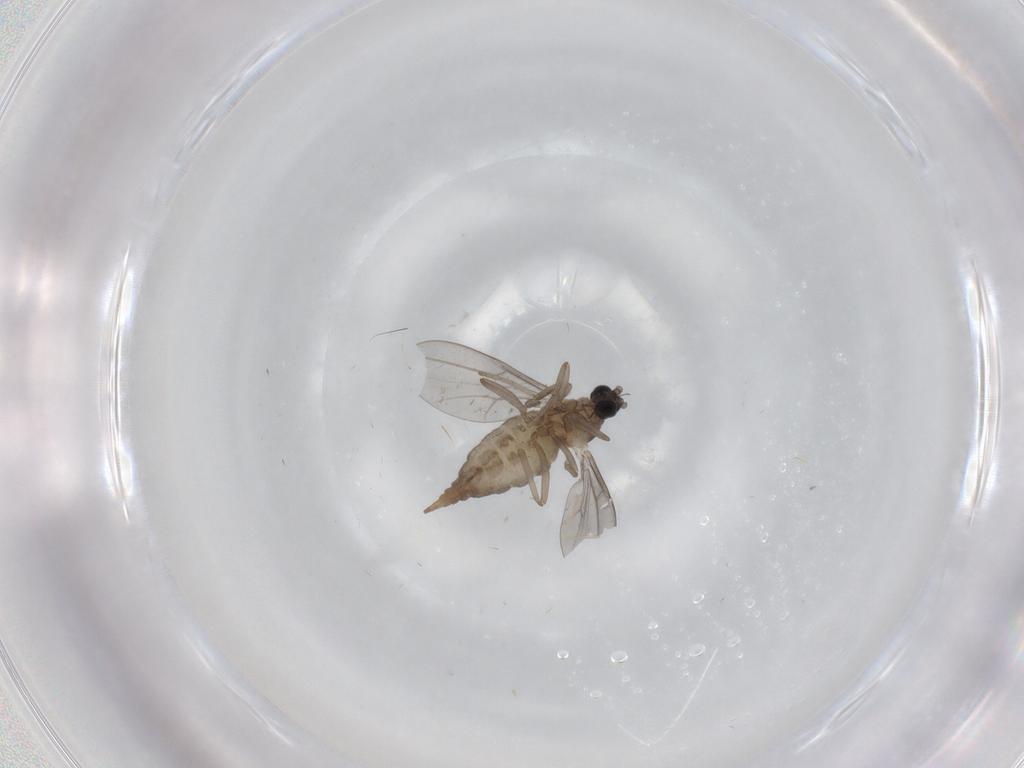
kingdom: Animalia
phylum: Arthropoda
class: Insecta
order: Diptera
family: Cecidomyiidae
